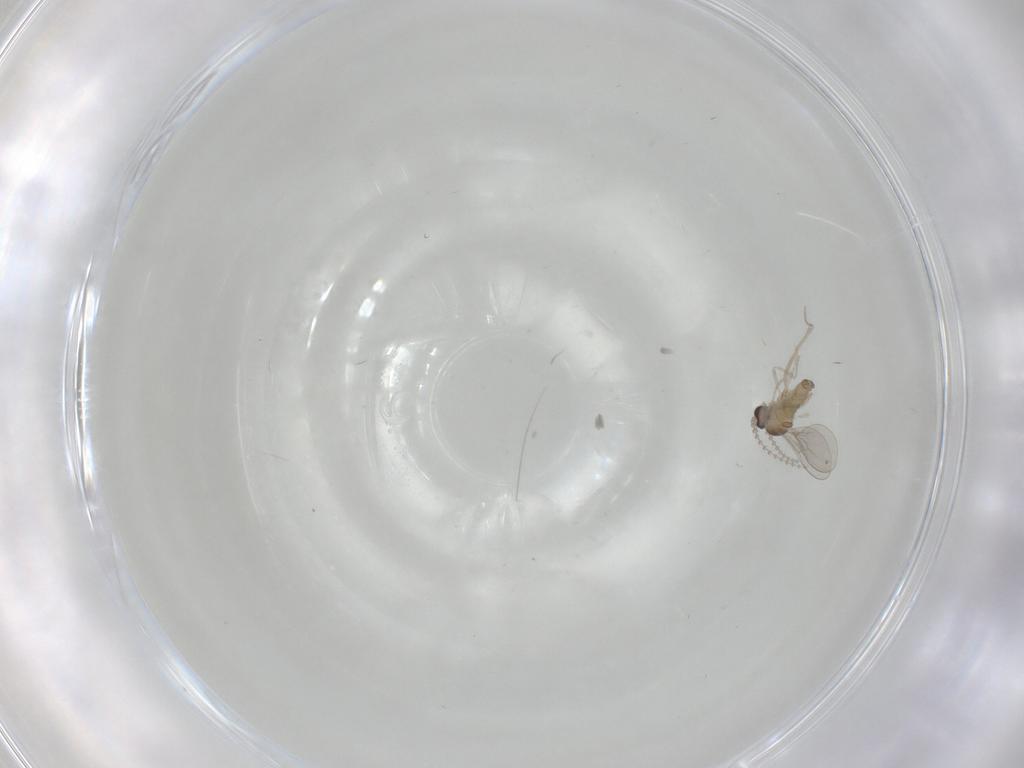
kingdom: Animalia
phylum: Arthropoda
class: Insecta
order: Diptera
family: Cecidomyiidae
